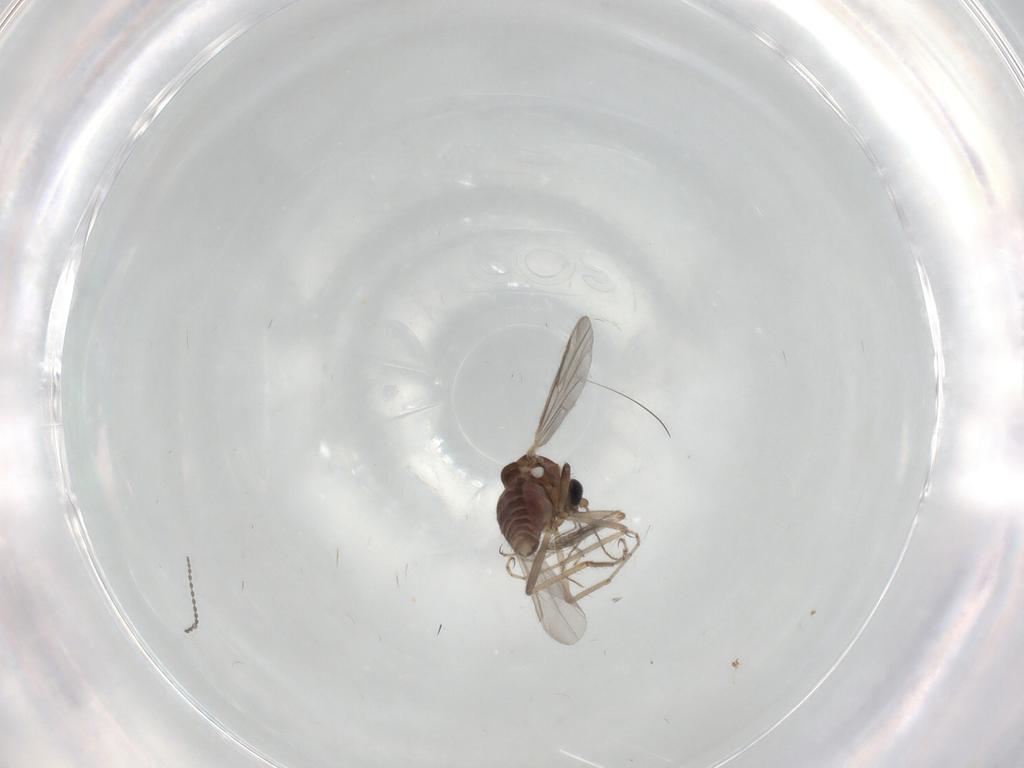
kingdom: Animalia
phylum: Arthropoda
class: Insecta
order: Diptera
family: Ceratopogonidae
